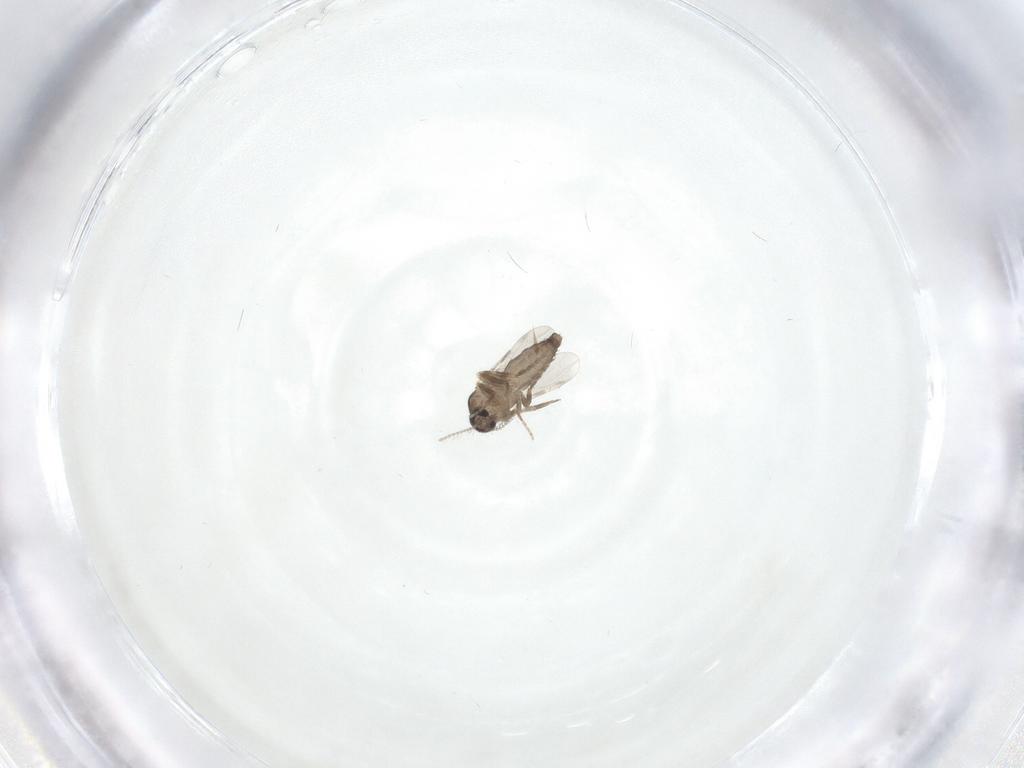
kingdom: Animalia
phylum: Arthropoda
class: Insecta
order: Diptera
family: Ceratopogonidae
